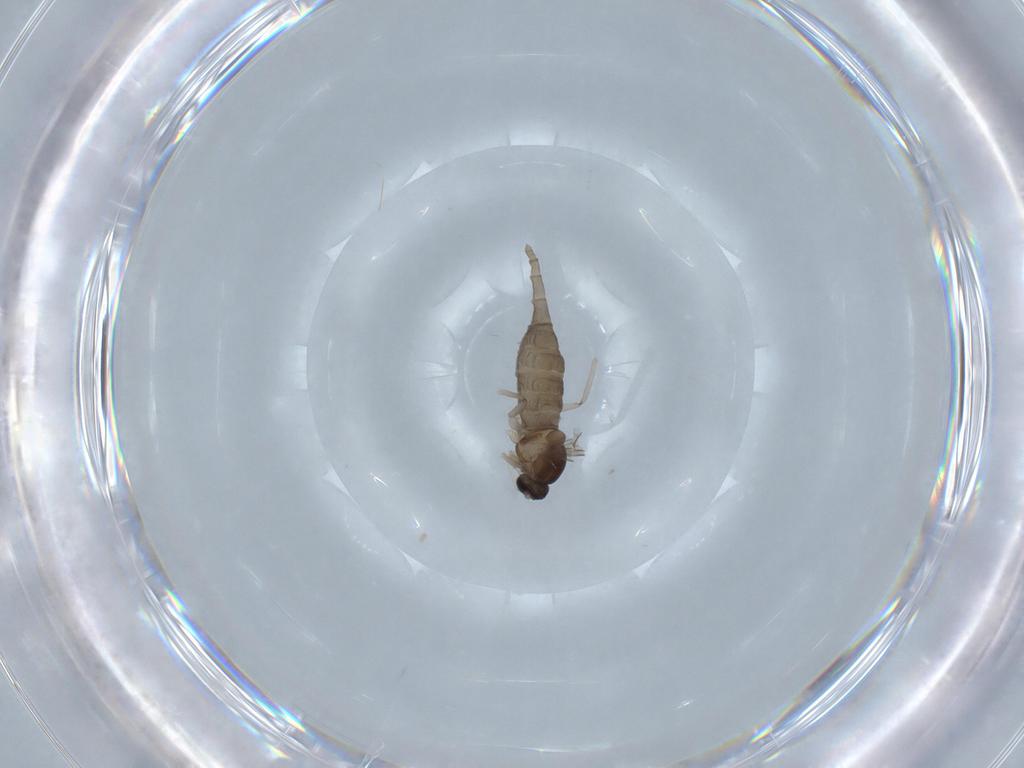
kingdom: Animalia
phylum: Arthropoda
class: Insecta
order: Diptera
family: Cecidomyiidae
